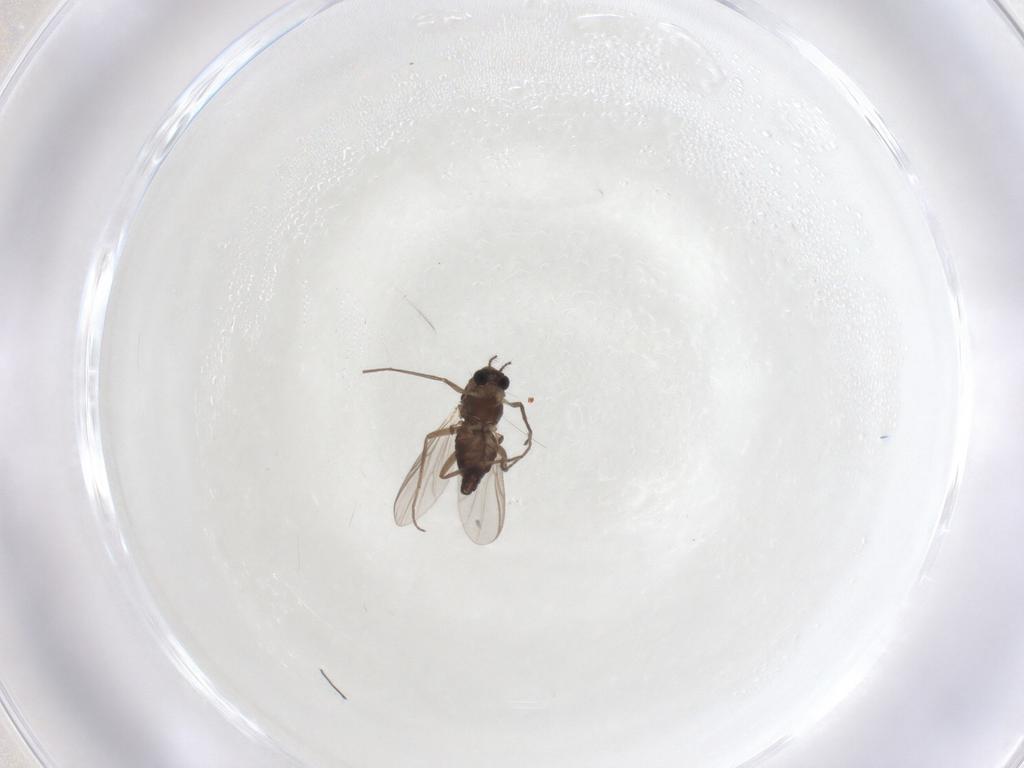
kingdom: Animalia
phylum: Arthropoda
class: Insecta
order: Diptera
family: Chironomidae
